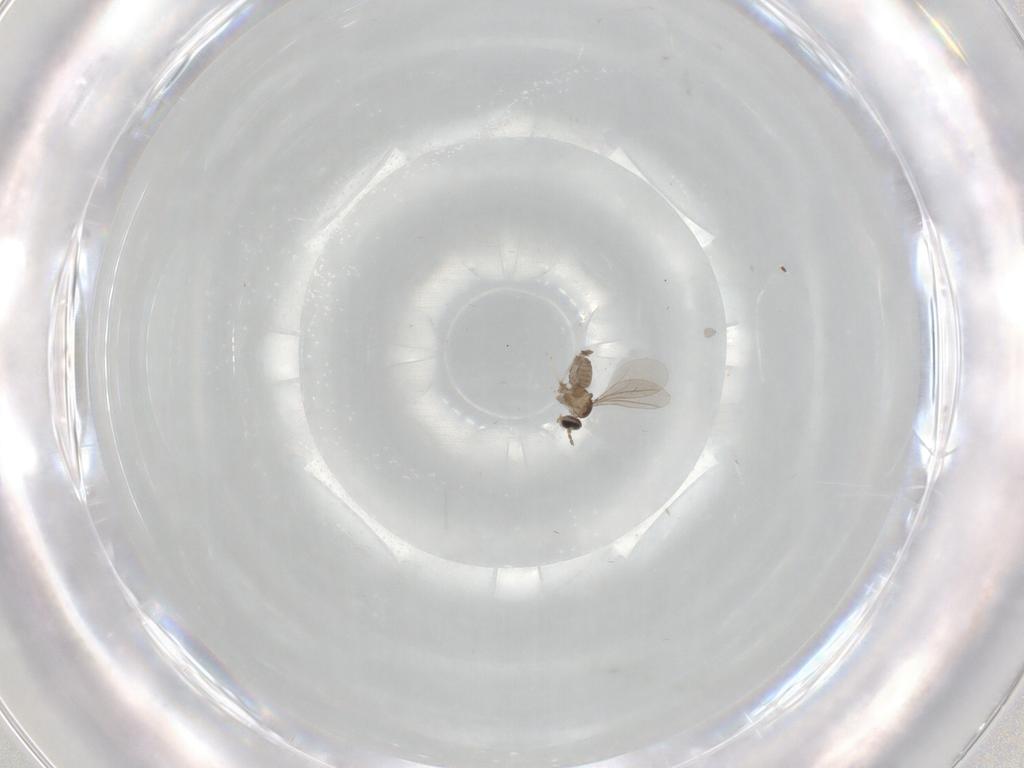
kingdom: Animalia
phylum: Arthropoda
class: Insecta
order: Diptera
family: Cecidomyiidae
